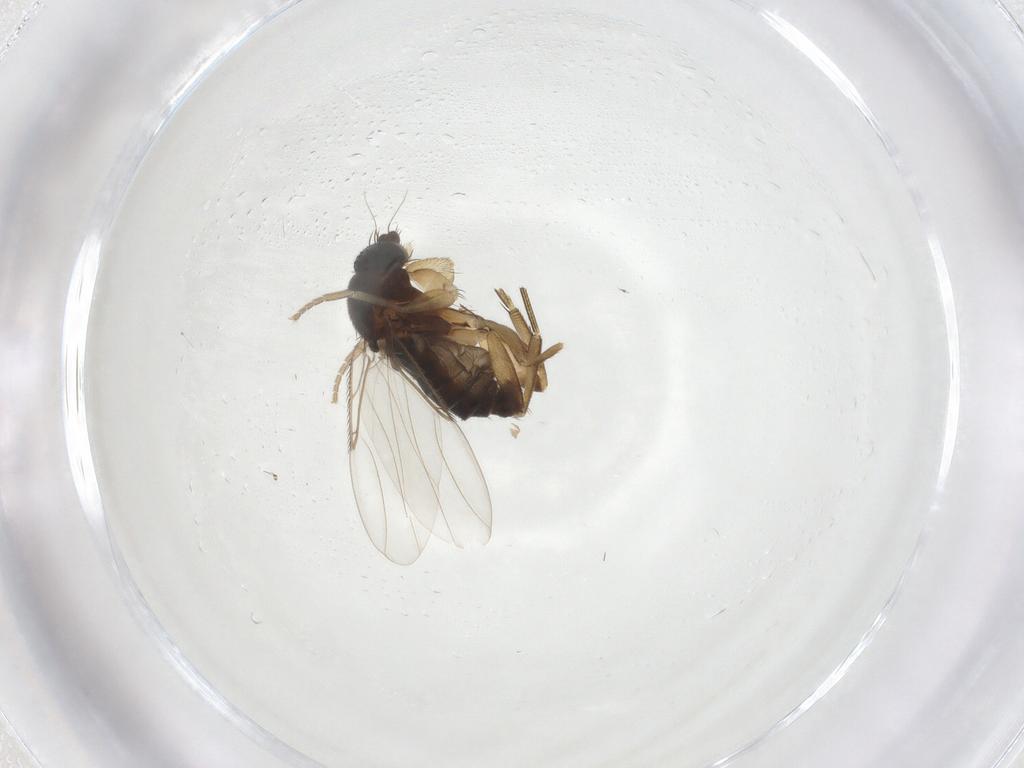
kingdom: Animalia
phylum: Arthropoda
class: Insecta
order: Diptera
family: Phoridae
